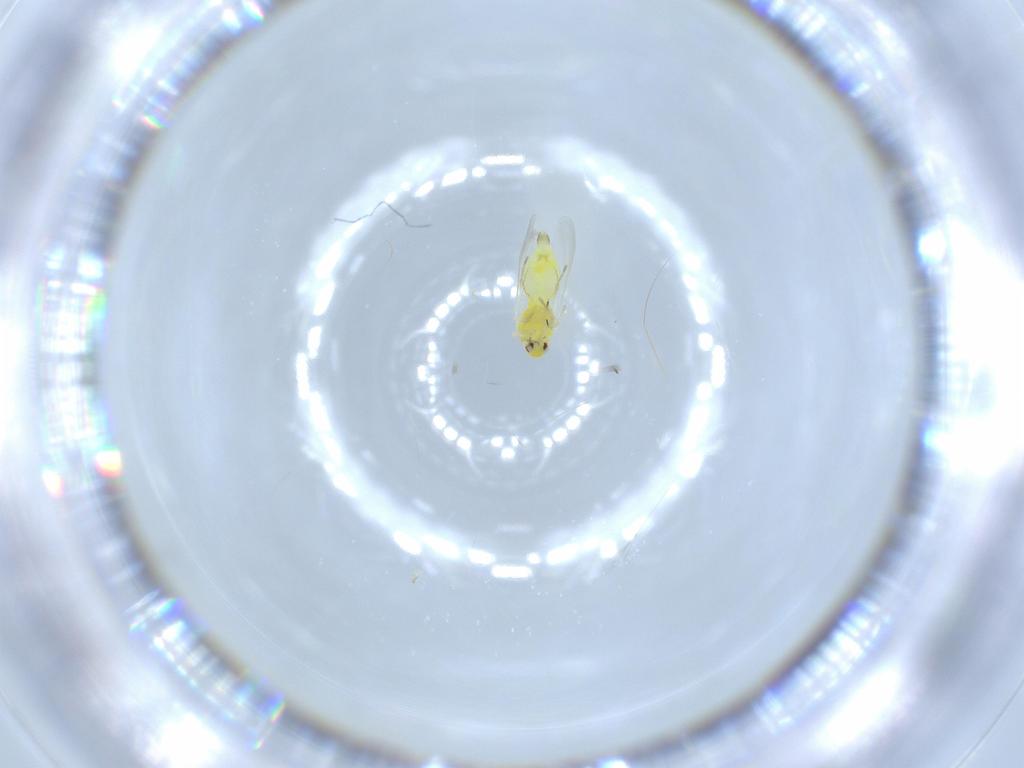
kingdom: Animalia
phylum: Arthropoda
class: Insecta
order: Hemiptera
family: Aleyrodidae
